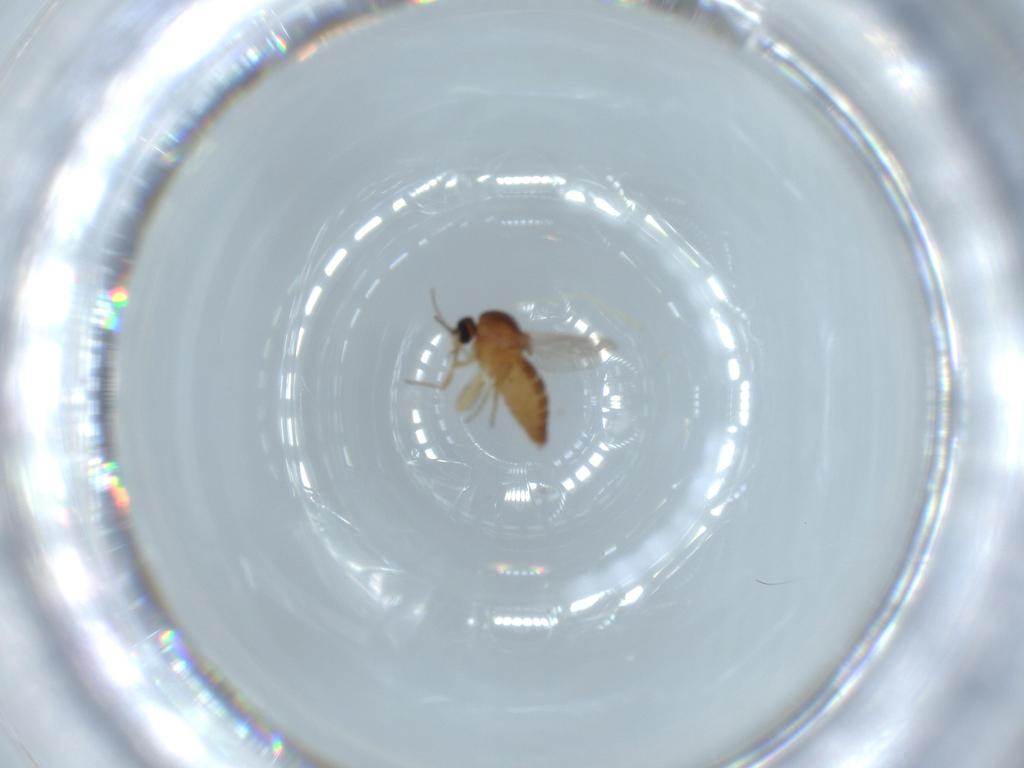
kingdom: Animalia
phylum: Arthropoda
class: Insecta
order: Diptera
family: Ceratopogonidae
